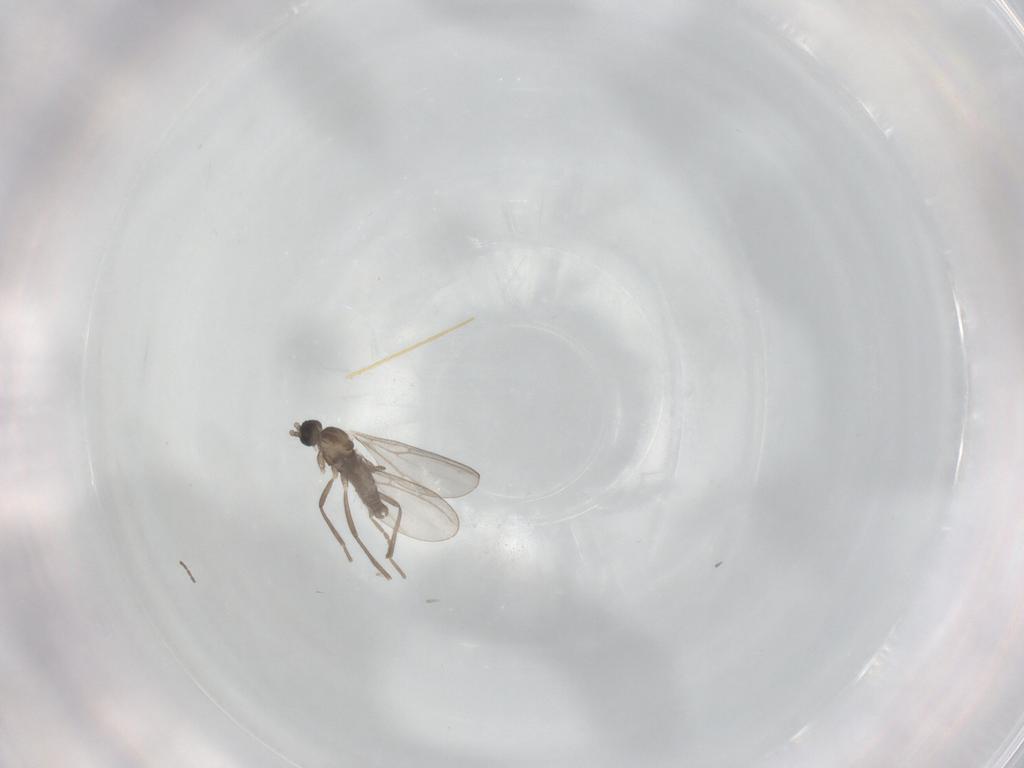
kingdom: Animalia
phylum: Arthropoda
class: Insecta
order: Diptera
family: Cecidomyiidae
